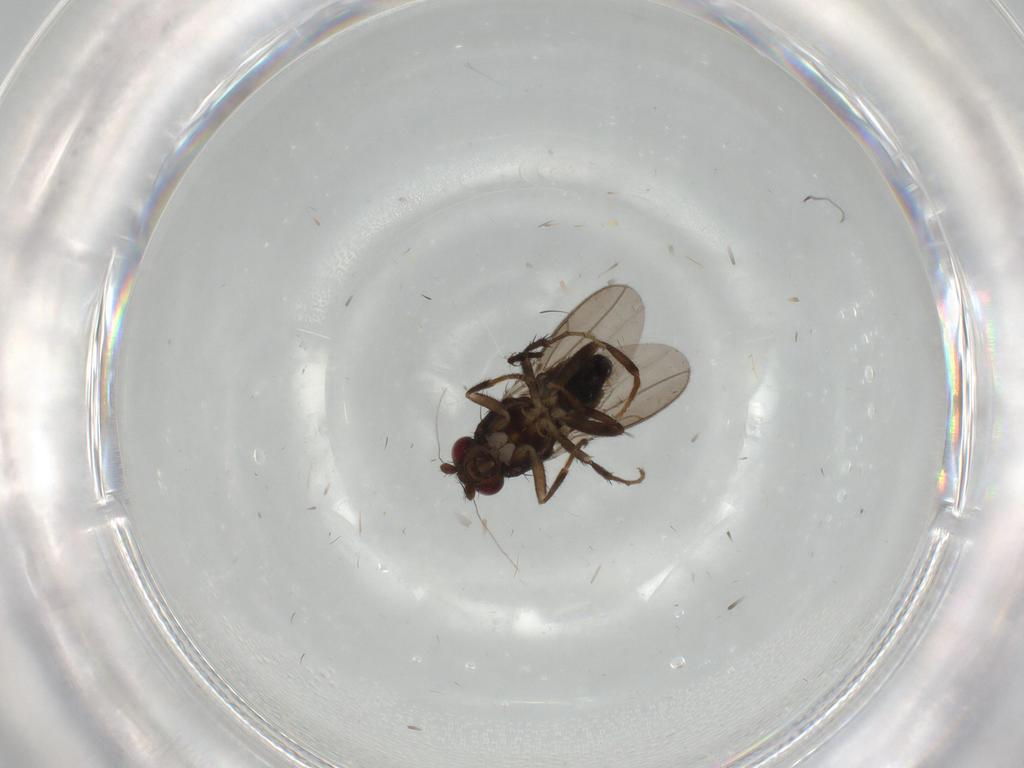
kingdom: Animalia
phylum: Arthropoda
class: Insecta
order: Diptera
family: Sphaeroceridae
